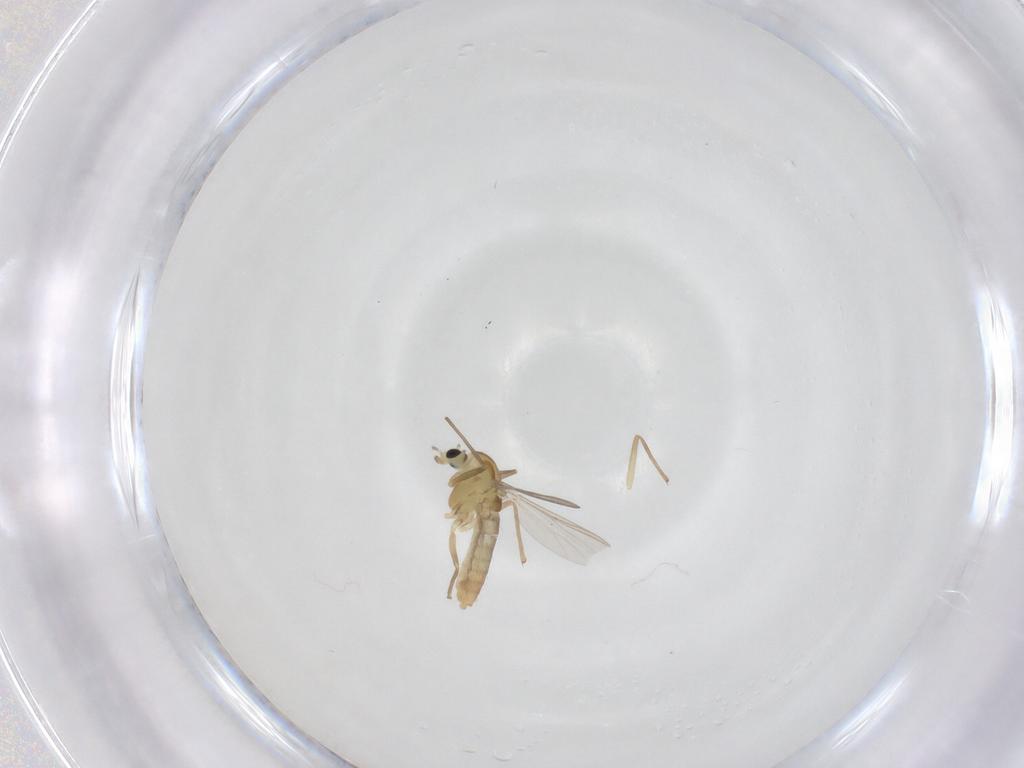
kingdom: Animalia
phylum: Arthropoda
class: Insecta
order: Diptera
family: Chironomidae
